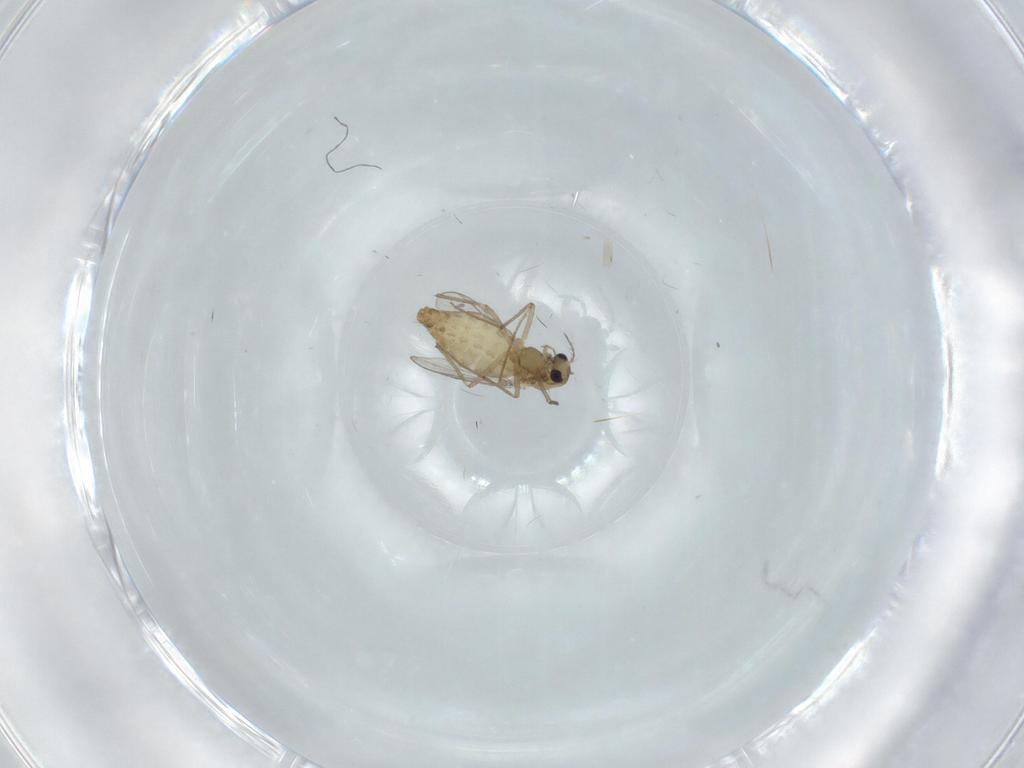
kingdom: Animalia
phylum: Arthropoda
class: Insecta
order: Diptera
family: Chironomidae
